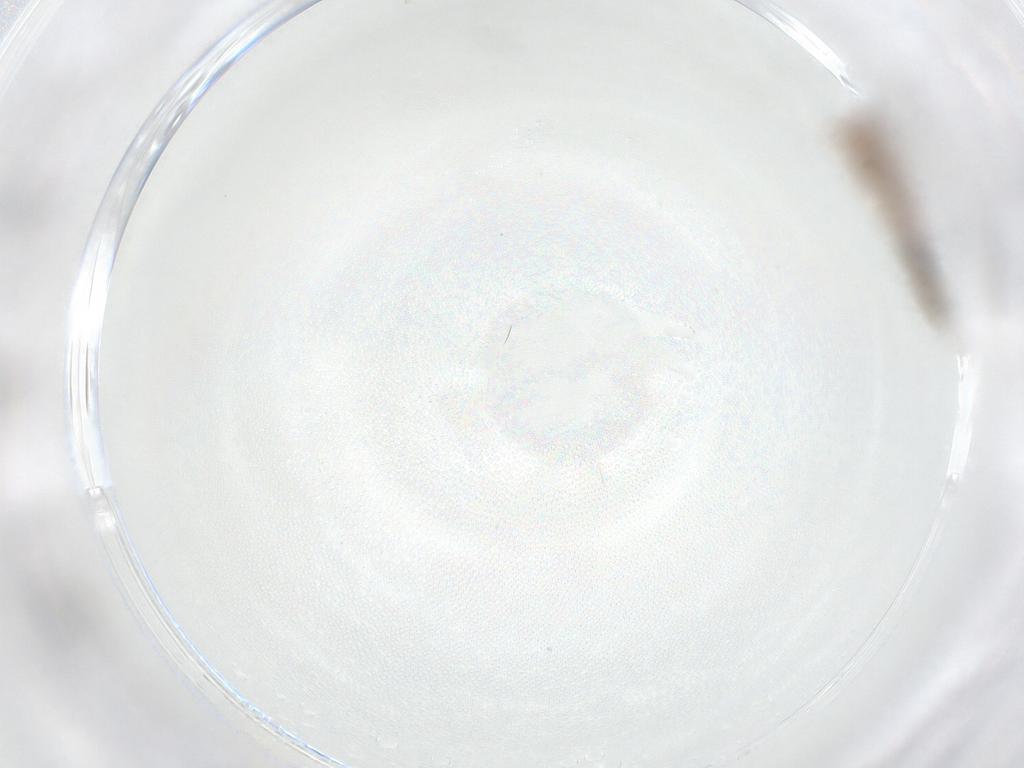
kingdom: Animalia
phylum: Arthropoda
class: Insecta
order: Orthoptera
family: Mogoplistidae
